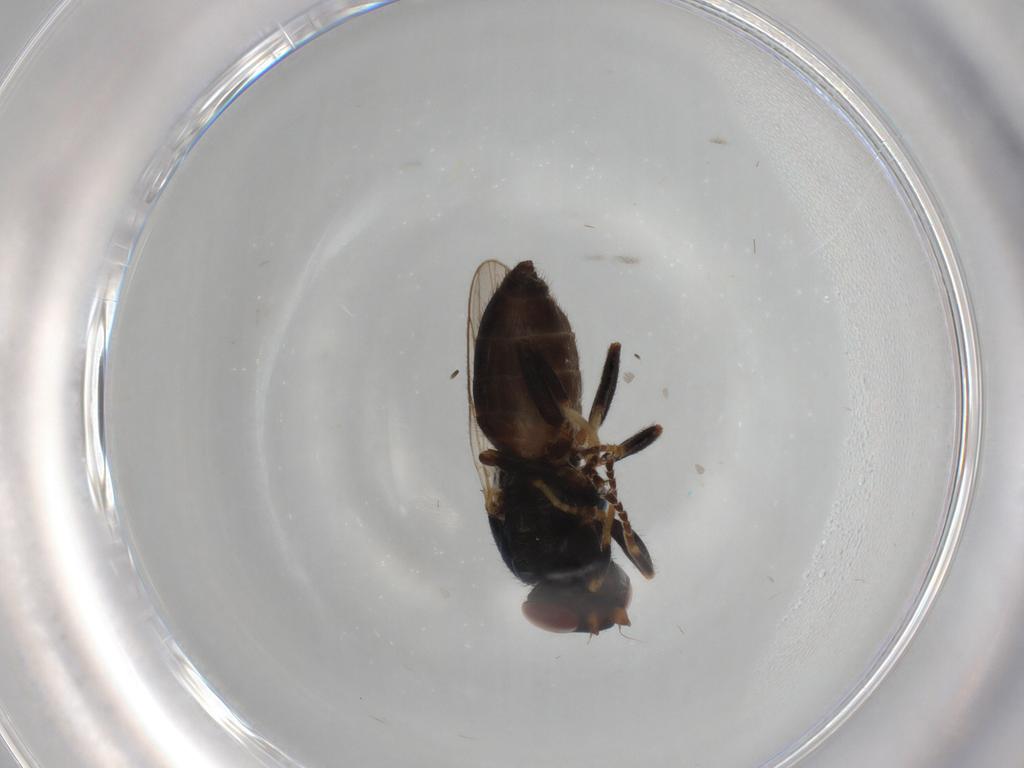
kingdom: Animalia
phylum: Arthropoda
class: Insecta
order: Diptera
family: Chloropidae
